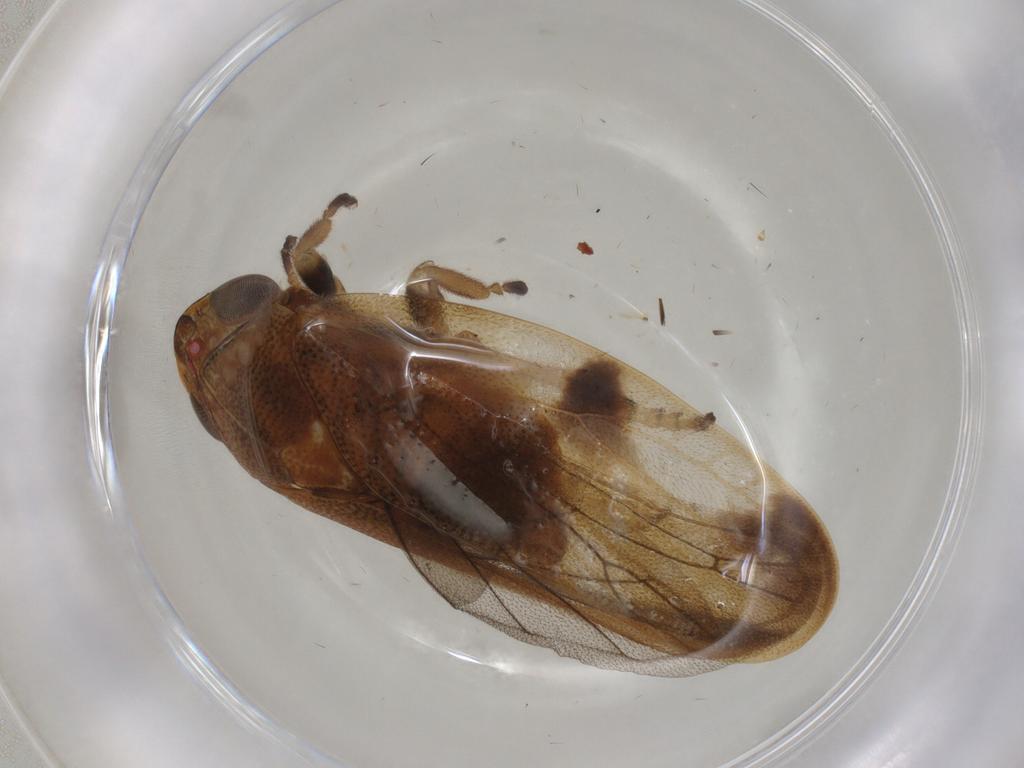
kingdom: Animalia
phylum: Arthropoda
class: Insecta
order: Hemiptera
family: Aphrophoridae
